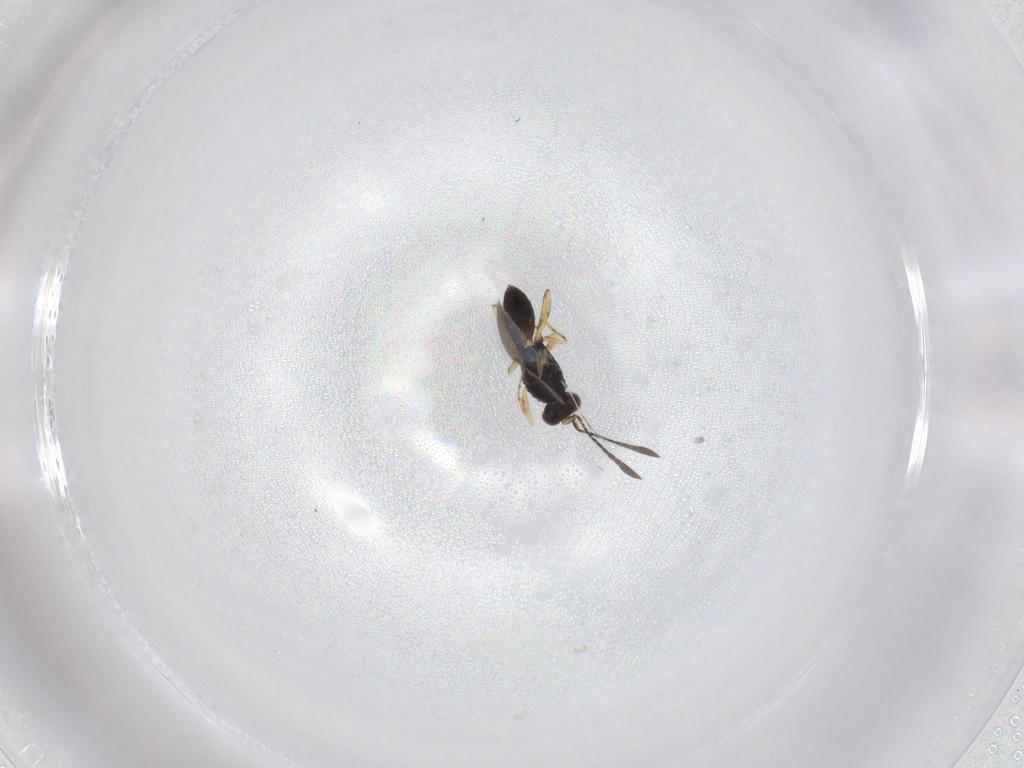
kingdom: Animalia
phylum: Arthropoda
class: Insecta
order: Hymenoptera
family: Mymaridae
